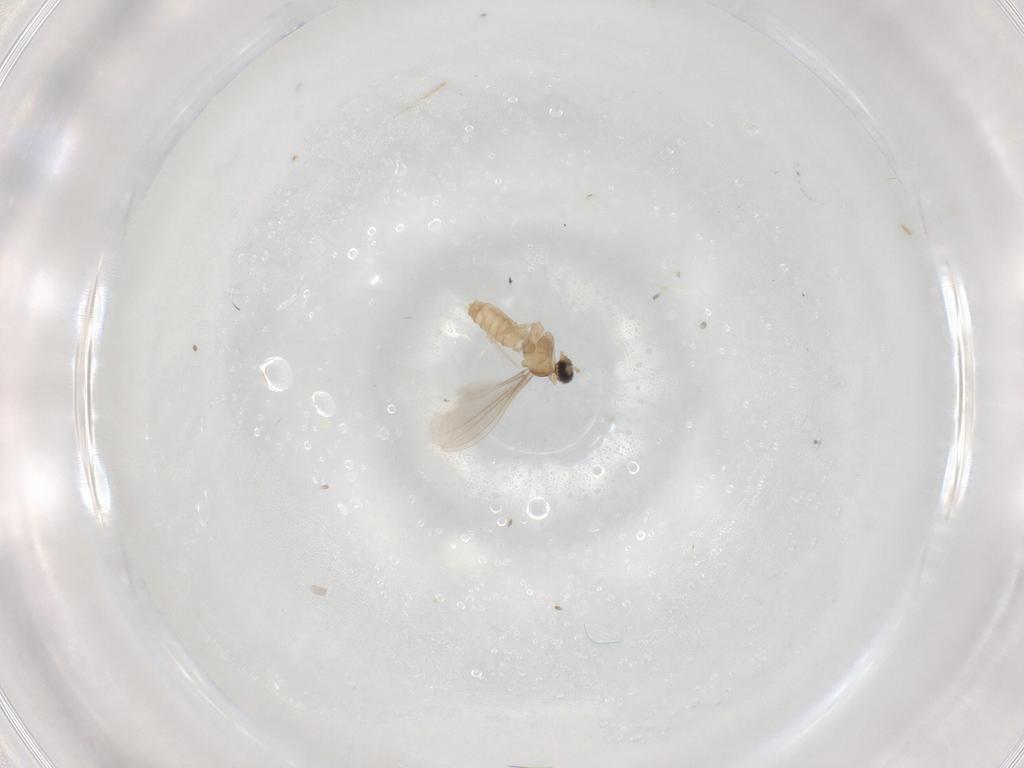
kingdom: Animalia
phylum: Arthropoda
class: Insecta
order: Diptera
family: Cecidomyiidae
